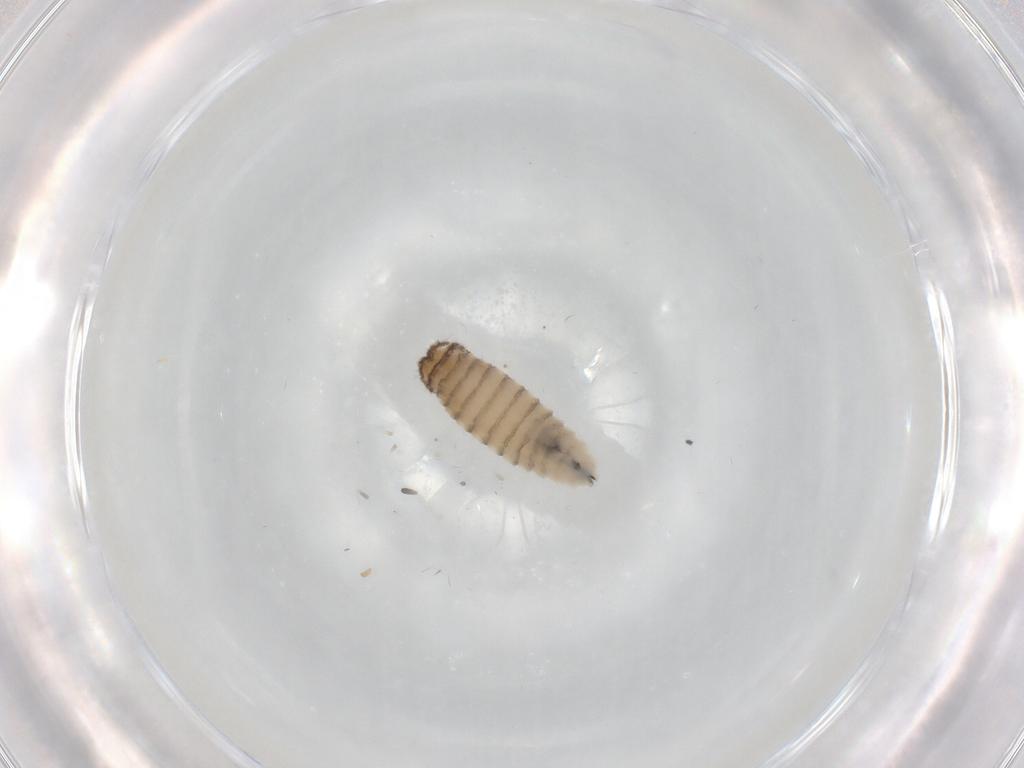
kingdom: Animalia
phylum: Arthropoda
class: Insecta
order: Diptera
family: Sarcophagidae
